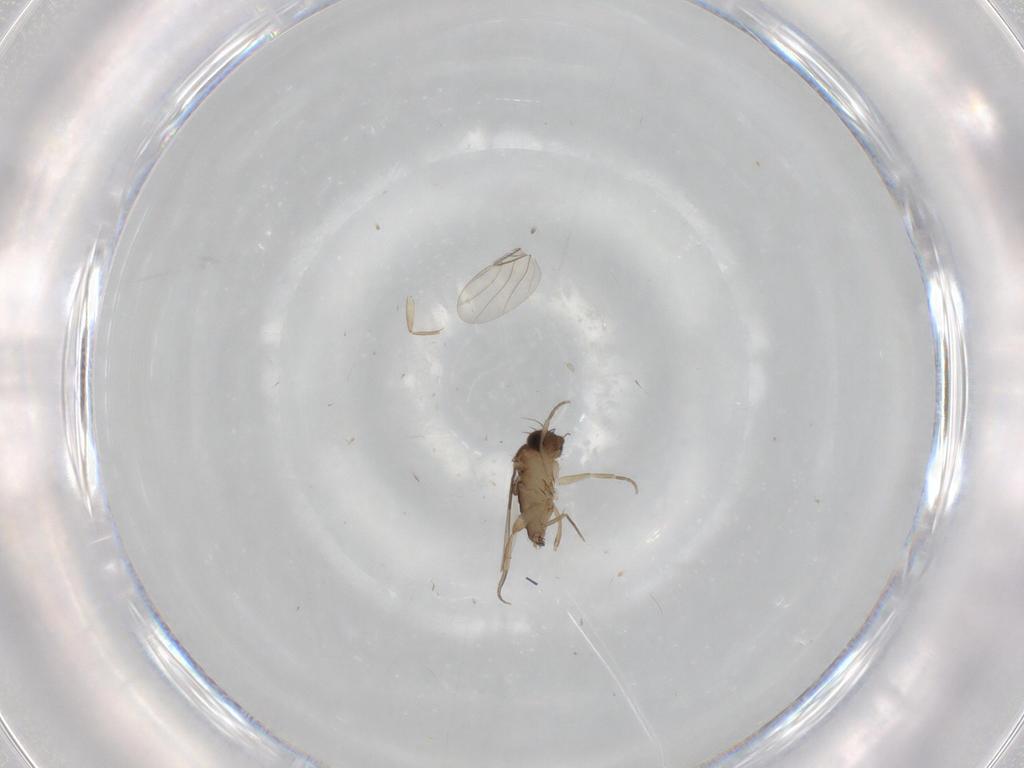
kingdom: Animalia
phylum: Arthropoda
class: Insecta
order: Diptera
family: Phoridae
